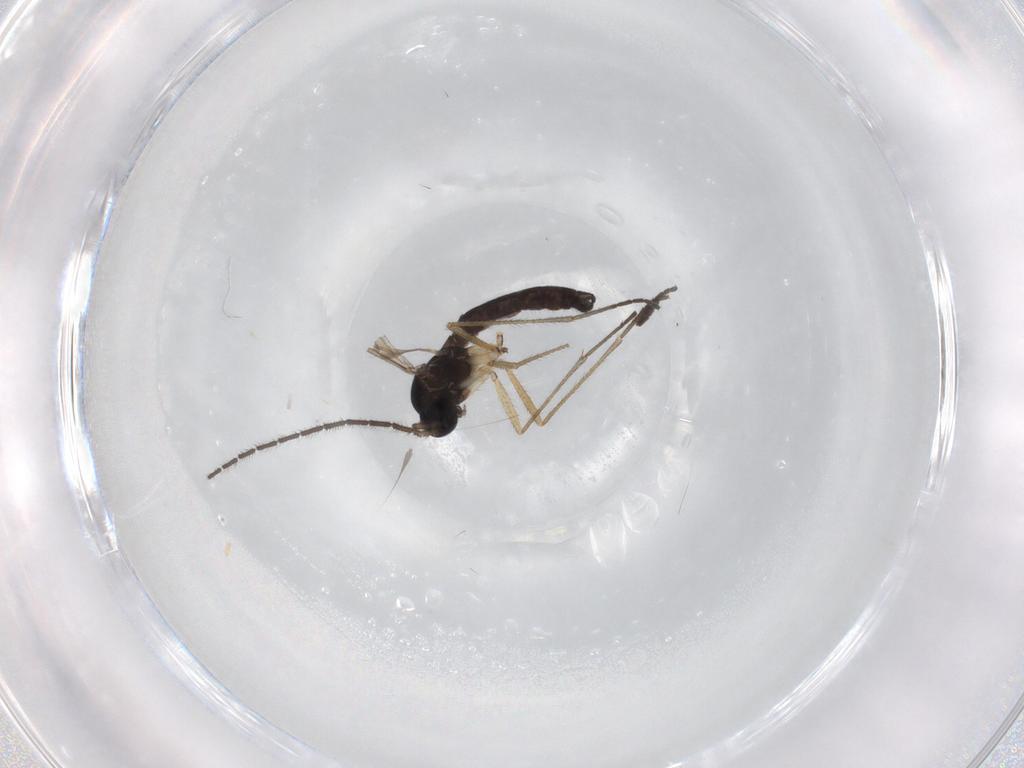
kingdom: Animalia
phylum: Arthropoda
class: Insecta
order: Diptera
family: Sciaridae
